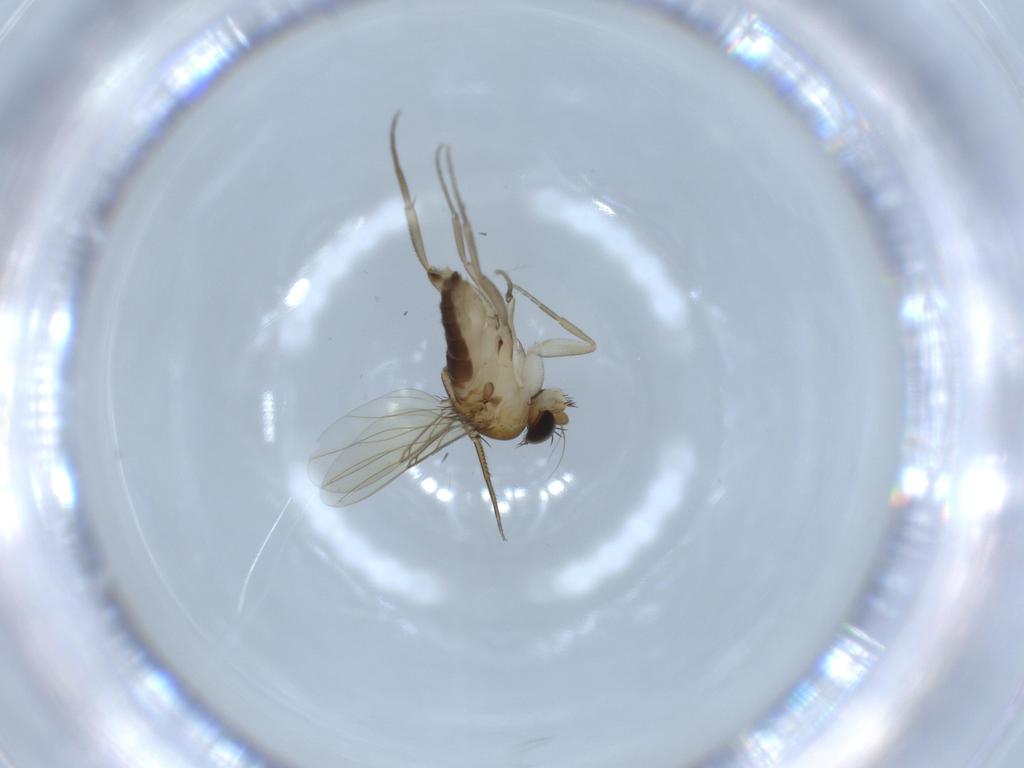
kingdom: Animalia
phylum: Arthropoda
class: Insecta
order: Diptera
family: Phoridae
